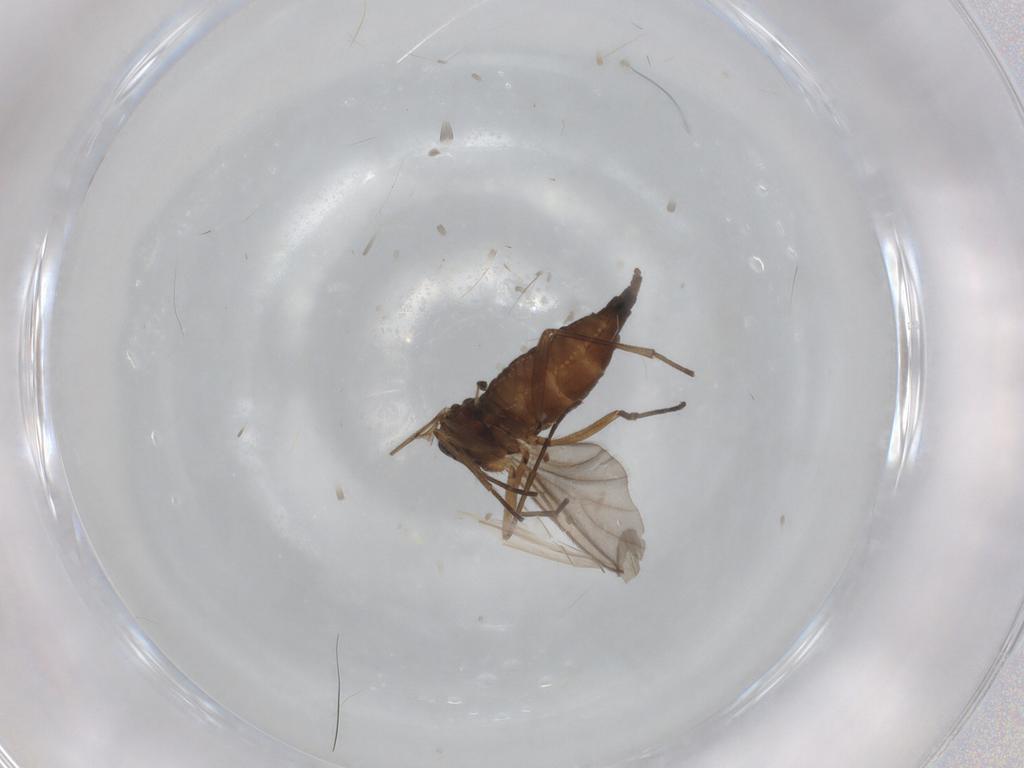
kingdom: Animalia
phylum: Arthropoda
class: Insecta
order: Diptera
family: Sciaridae
